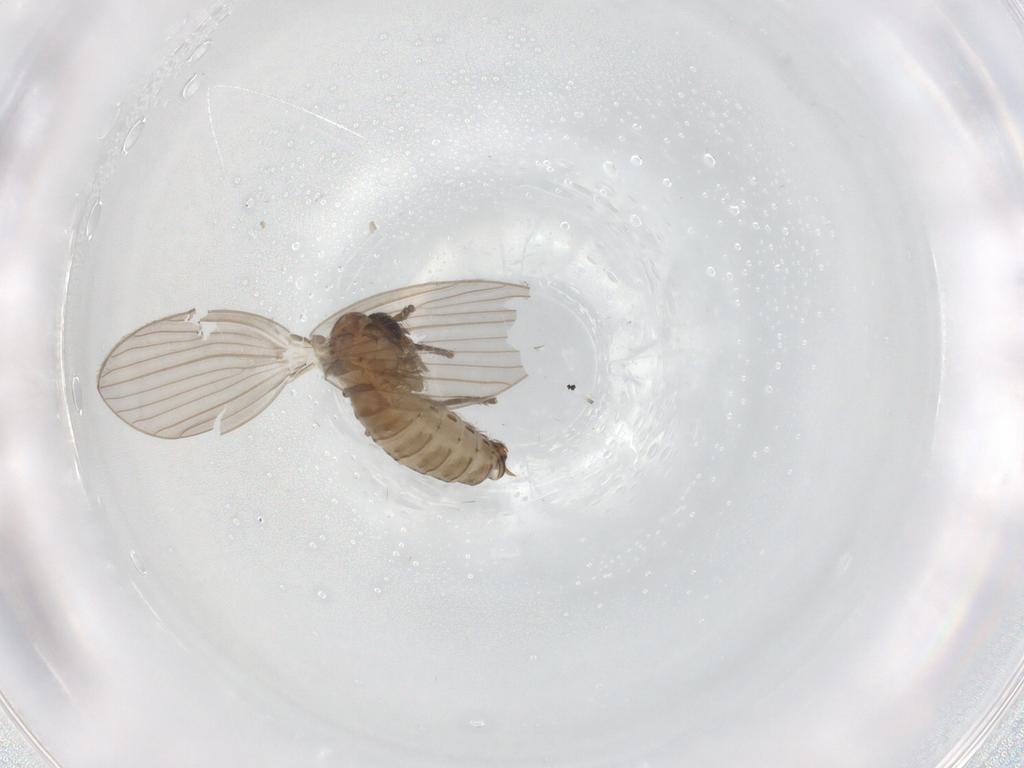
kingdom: Animalia
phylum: Arthropoda
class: Insecta
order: Diptera
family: Psychodidae
